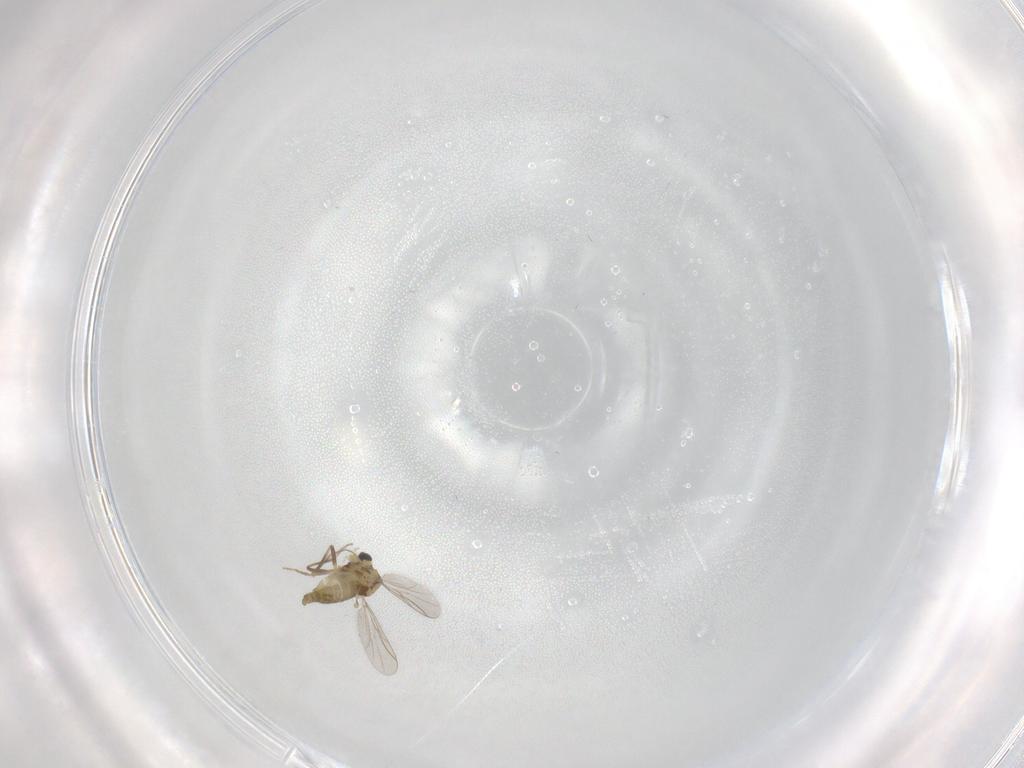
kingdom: Animalia
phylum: Arthropoda
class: Insecta
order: Diptera
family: Chironomidae
